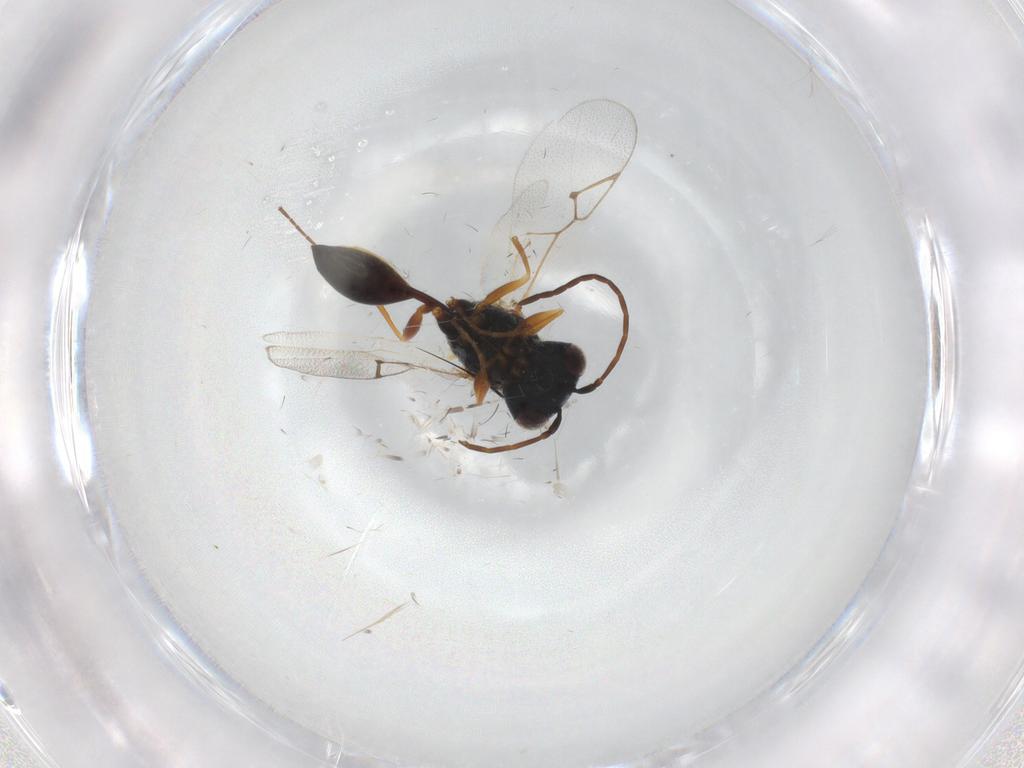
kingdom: Animalia
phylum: Arthropoda
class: Insecta
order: Hymenoptera
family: Figitidae
